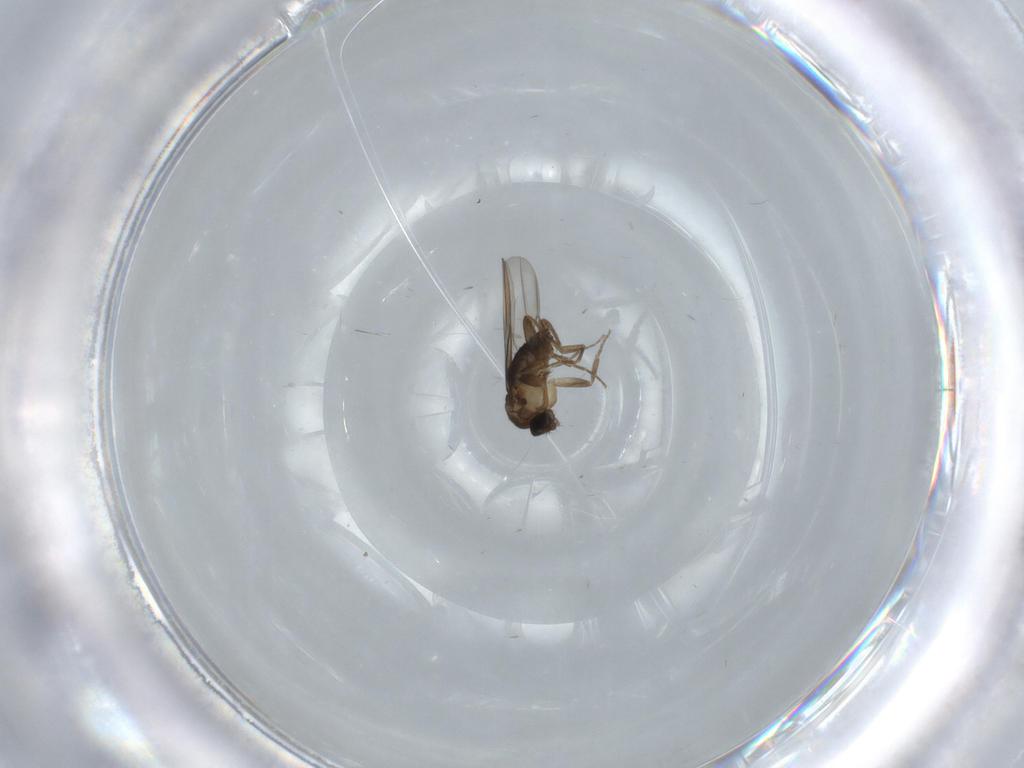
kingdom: Animalia
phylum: Arthropoda
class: Insecta
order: Diptera
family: Phoridae
